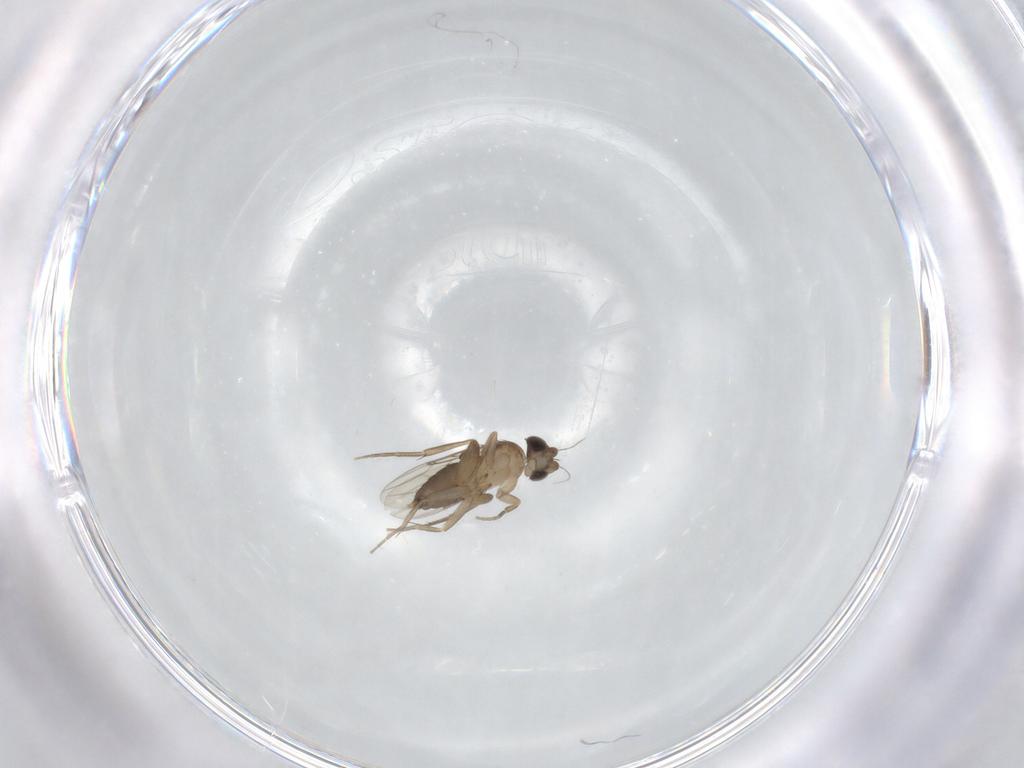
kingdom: Animalia
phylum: Arthropoda
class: Insecta
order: Diptera
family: Phoridae
